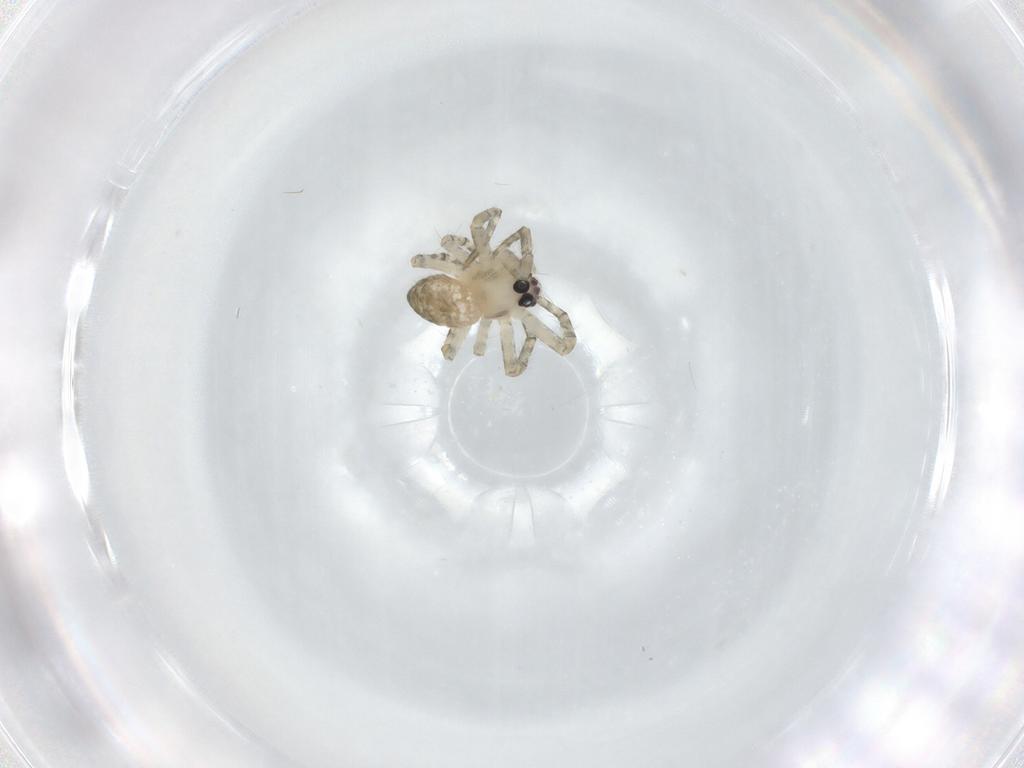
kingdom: Animalia
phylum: Arthropoda
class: Arachnida
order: Araneae
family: Araneidae
